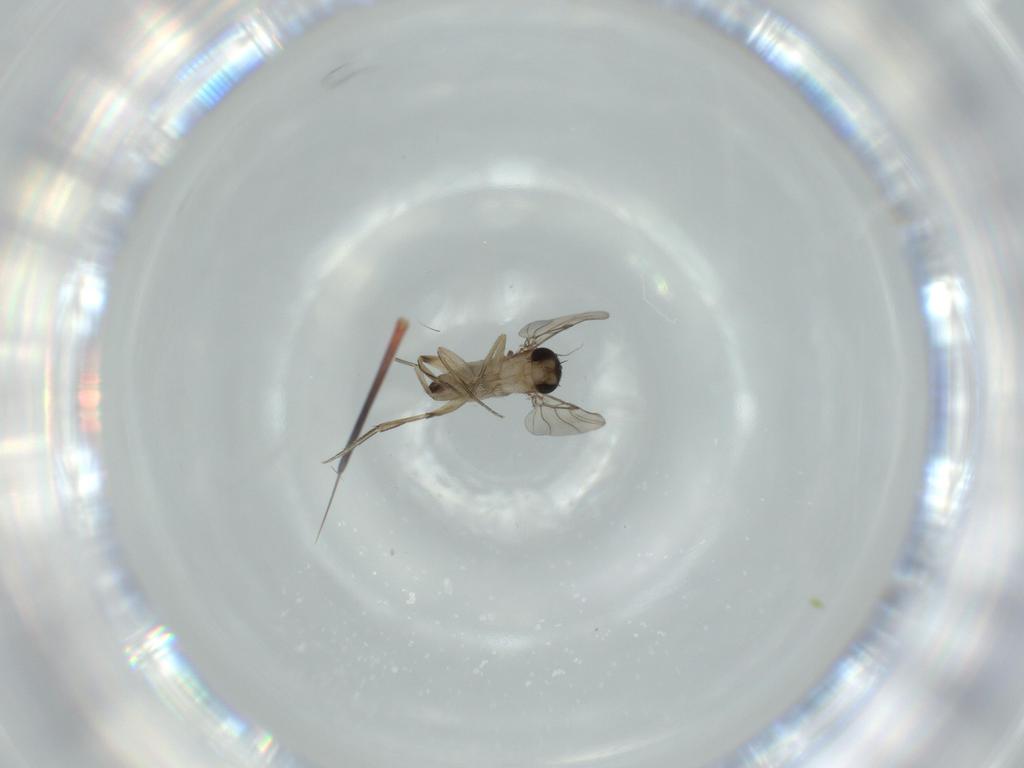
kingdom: Animalia
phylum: Arthropoda
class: Insecta
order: Diptera
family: Phoridae
